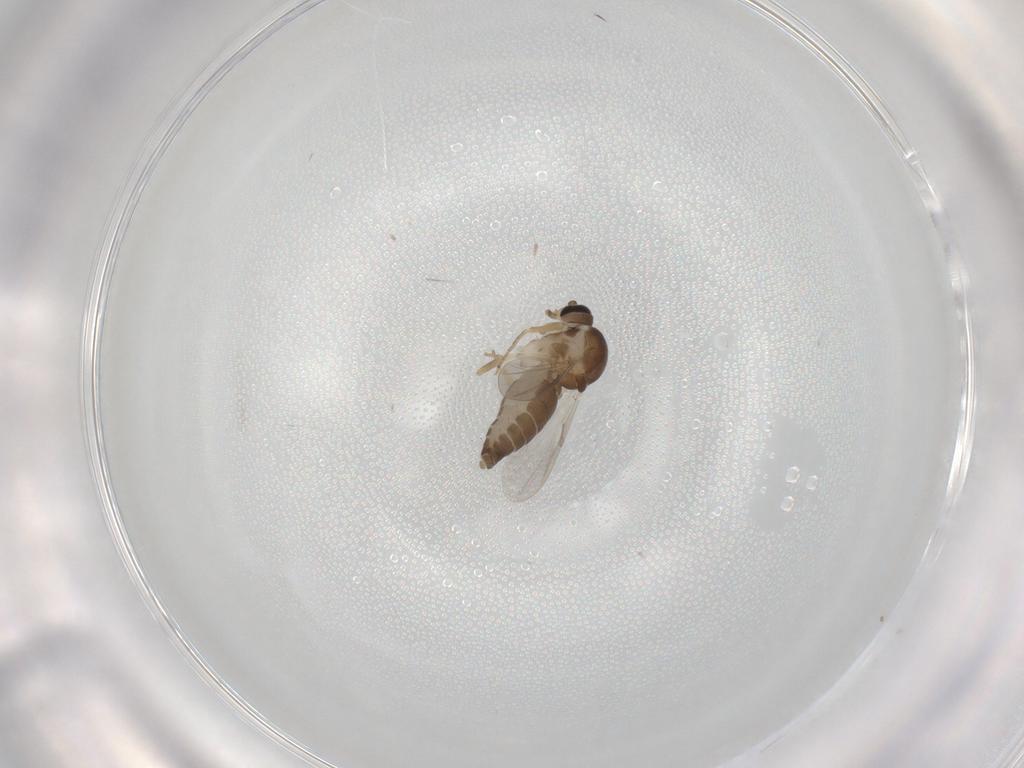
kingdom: Animalia
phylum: Arthropoda
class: Insecta
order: Diptera
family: Ceratopogonidae
